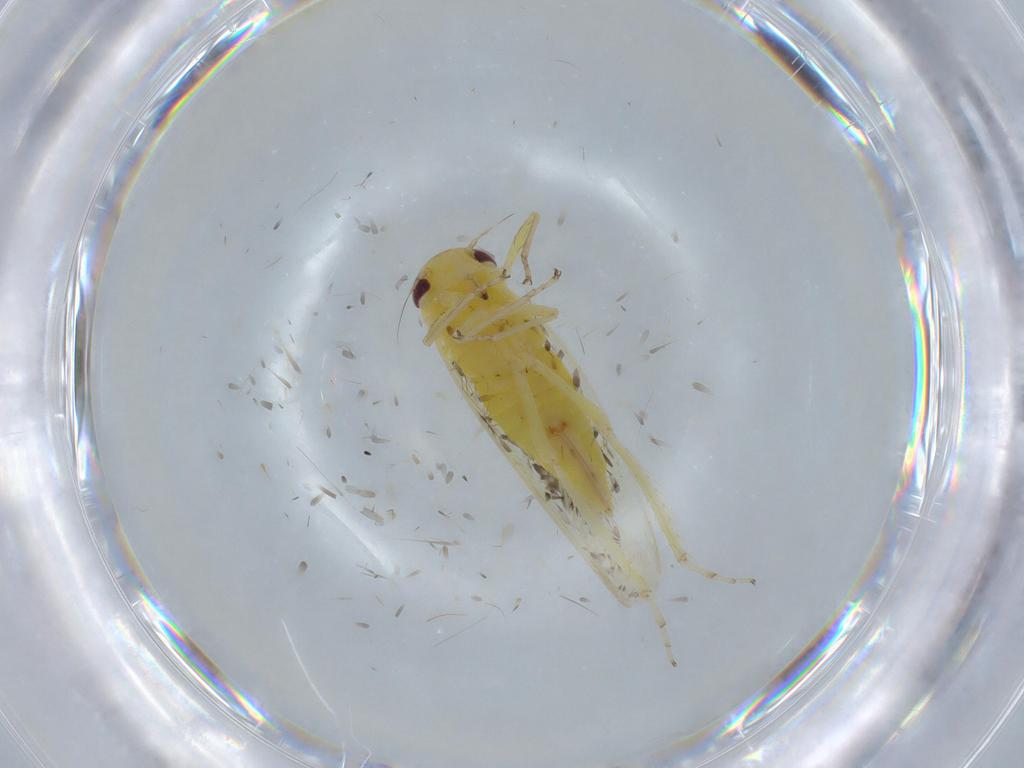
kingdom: Animalia
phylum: Arthropoda
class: Insecta
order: Hemiptera
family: Cicadellidae
